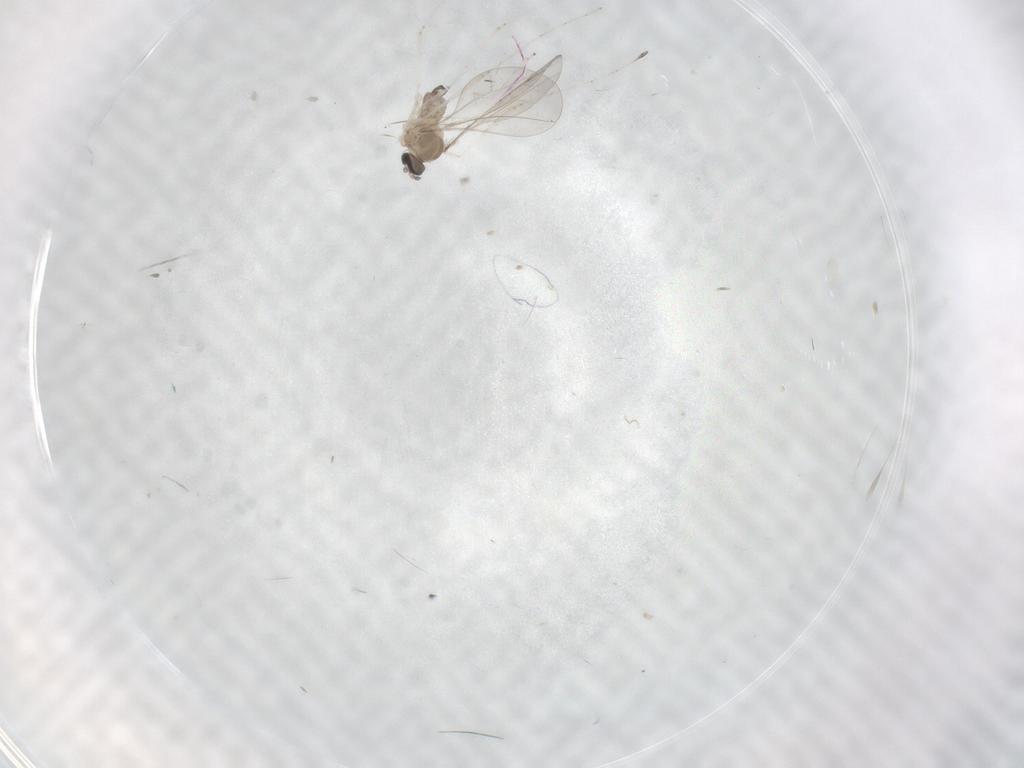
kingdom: Animalia
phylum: Arthropoda
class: Insecta
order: Diptera
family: Cecidomyiidae
